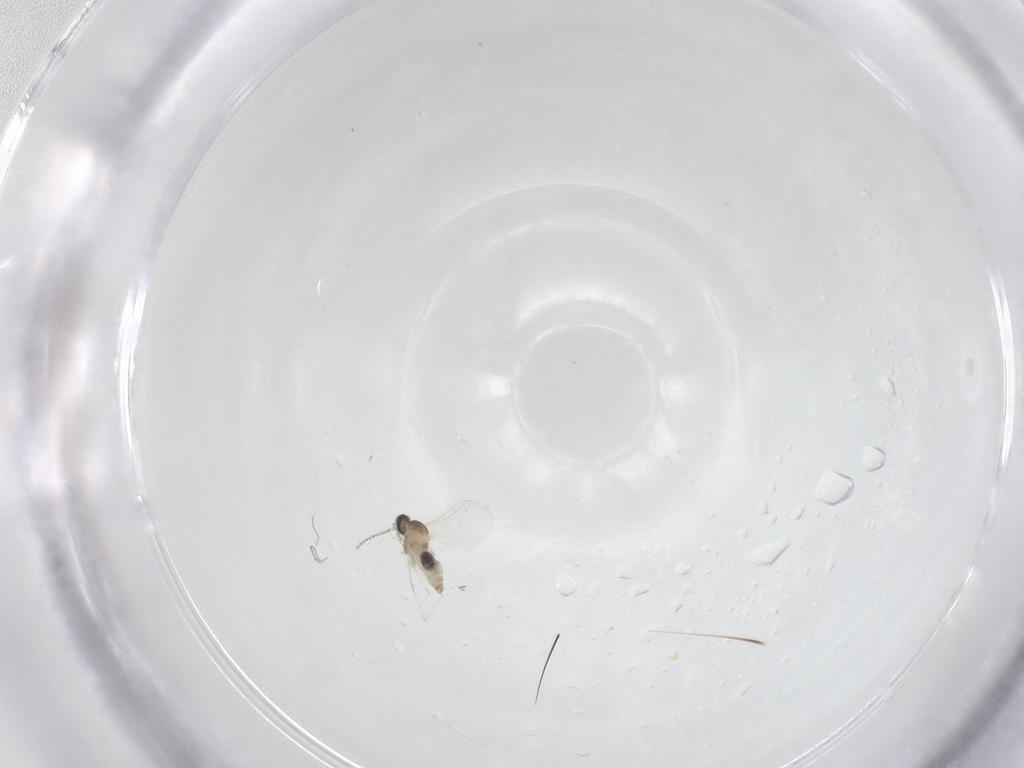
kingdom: Animalia
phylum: Arthropoda
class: Insecta
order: Diptera
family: Cecidomyiidae
